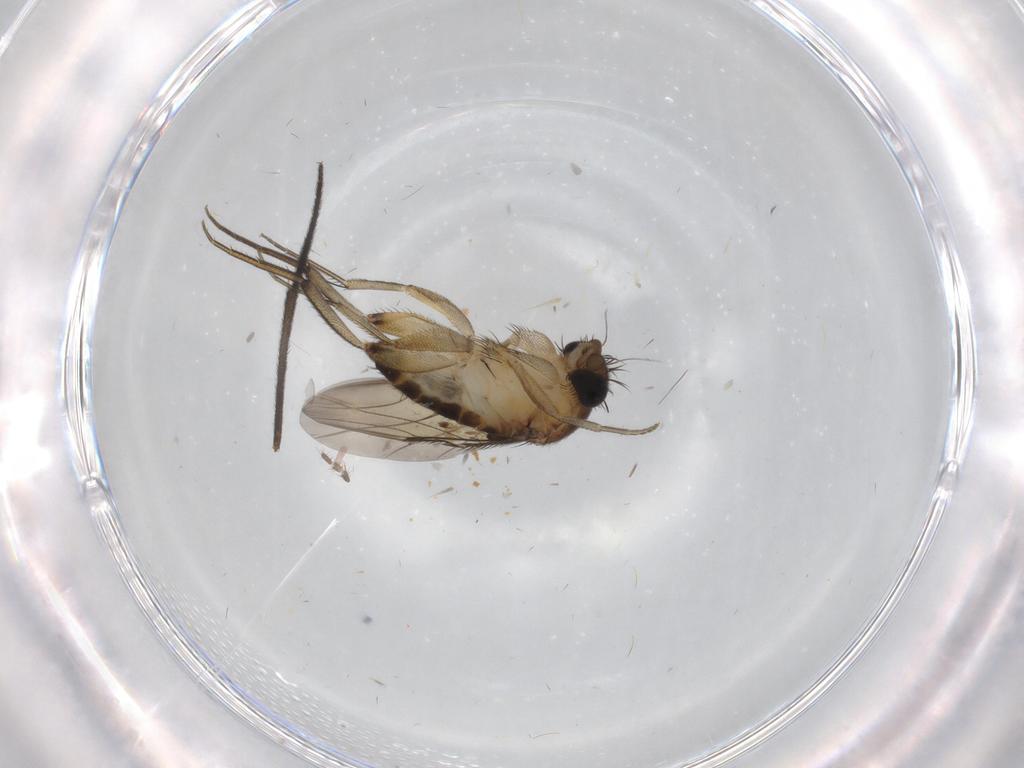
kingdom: Animalia
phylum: Arthropoda
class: Insecta
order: Diptera
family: Phoridae
